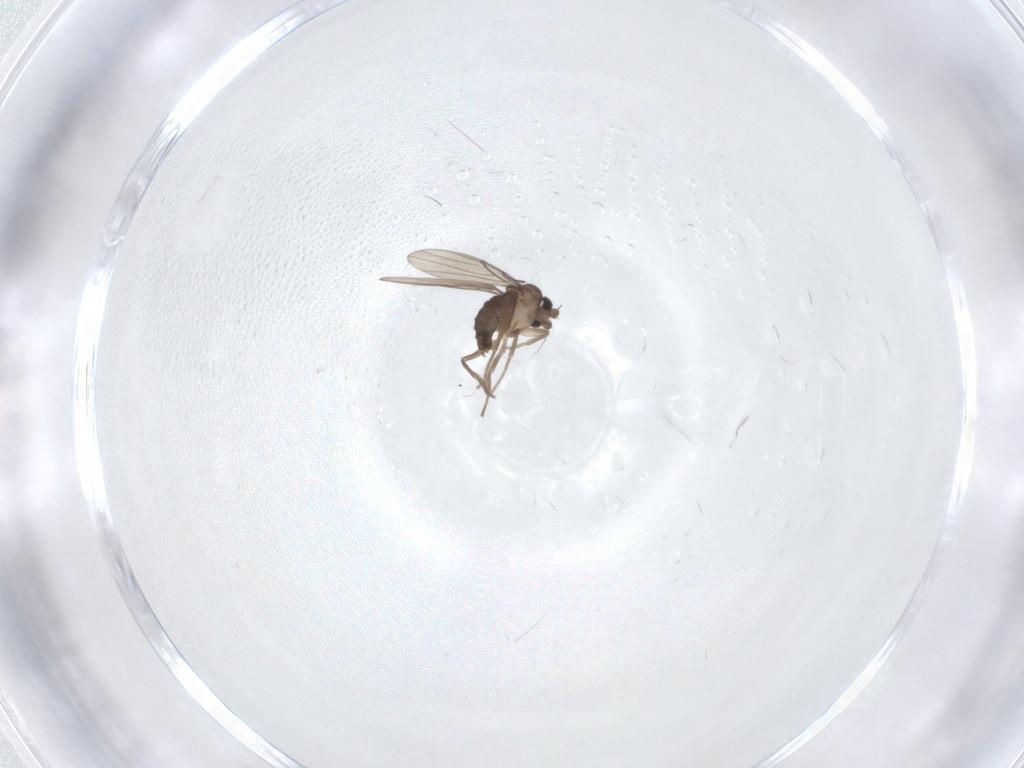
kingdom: Animalia
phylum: Arthropoda
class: Insecta
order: Diptera
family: Phoridae
